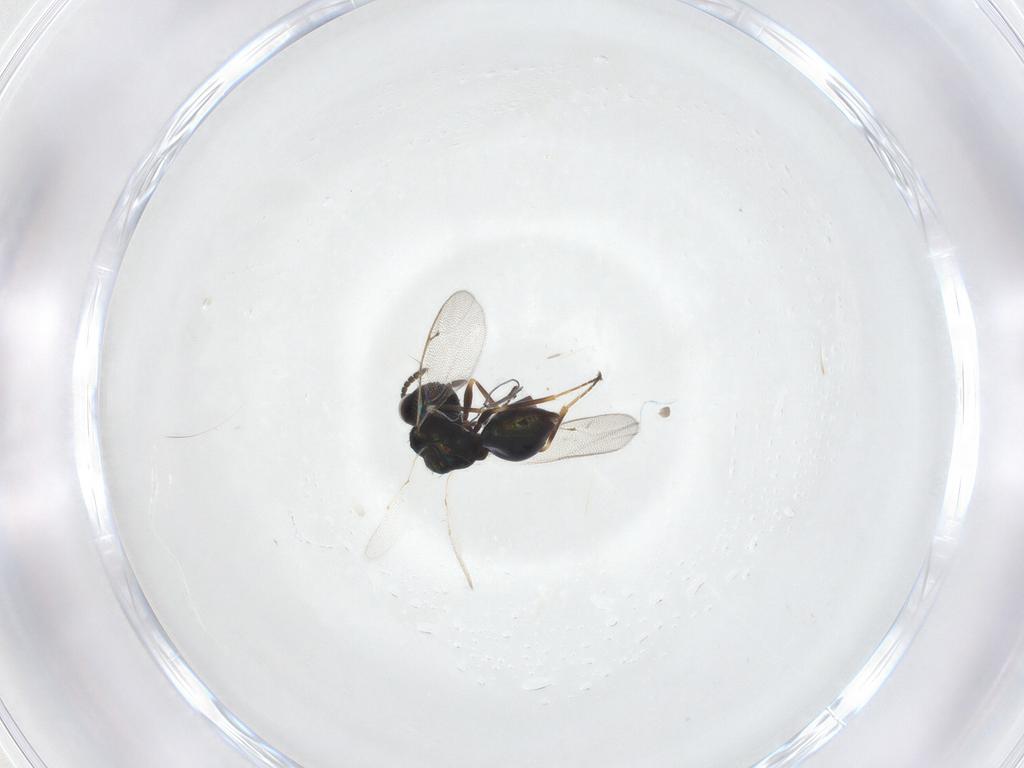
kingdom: Animalia
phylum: Arthropoda
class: Insecta
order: Hymenoptera
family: Pteromalidae
